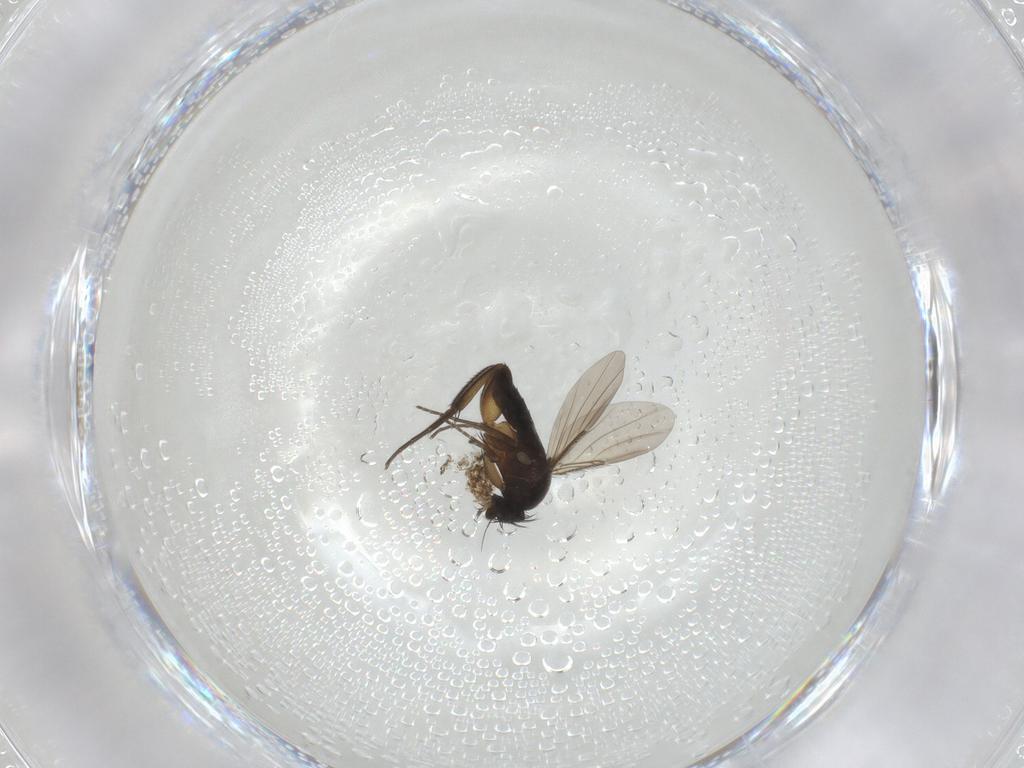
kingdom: Animalia
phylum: Arthropoda
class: Insecta
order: Diptera
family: Phoridae
